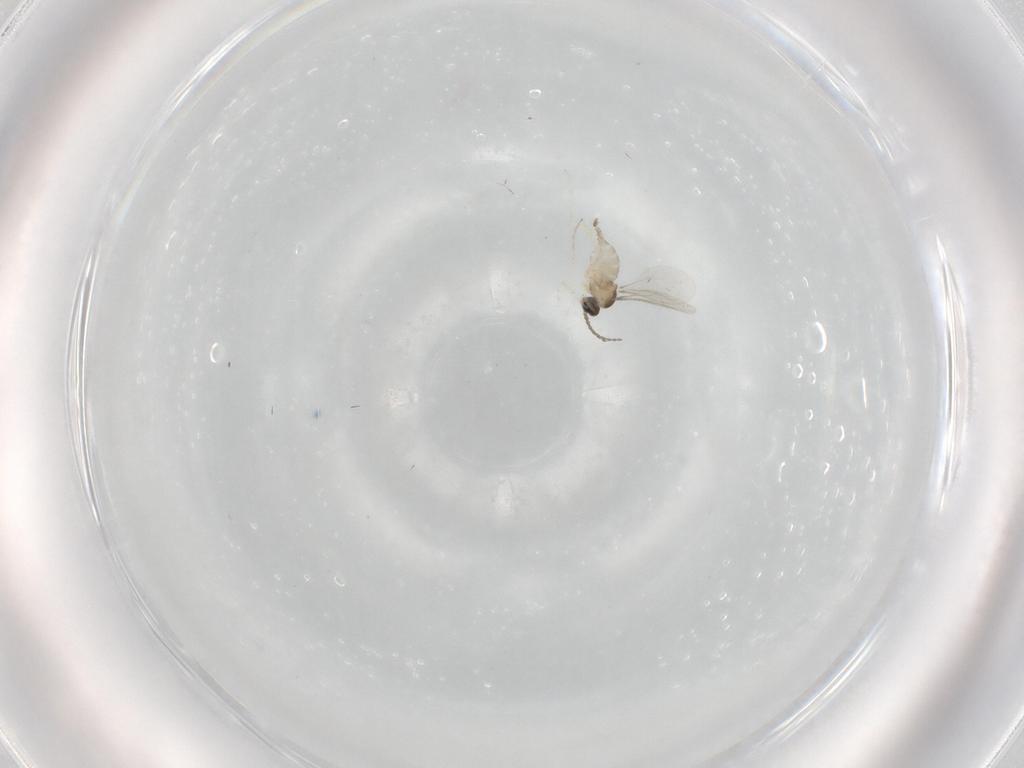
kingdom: Animalia
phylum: Arthropoda
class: Insecta
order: Diptera
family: Cecidomyiidae
